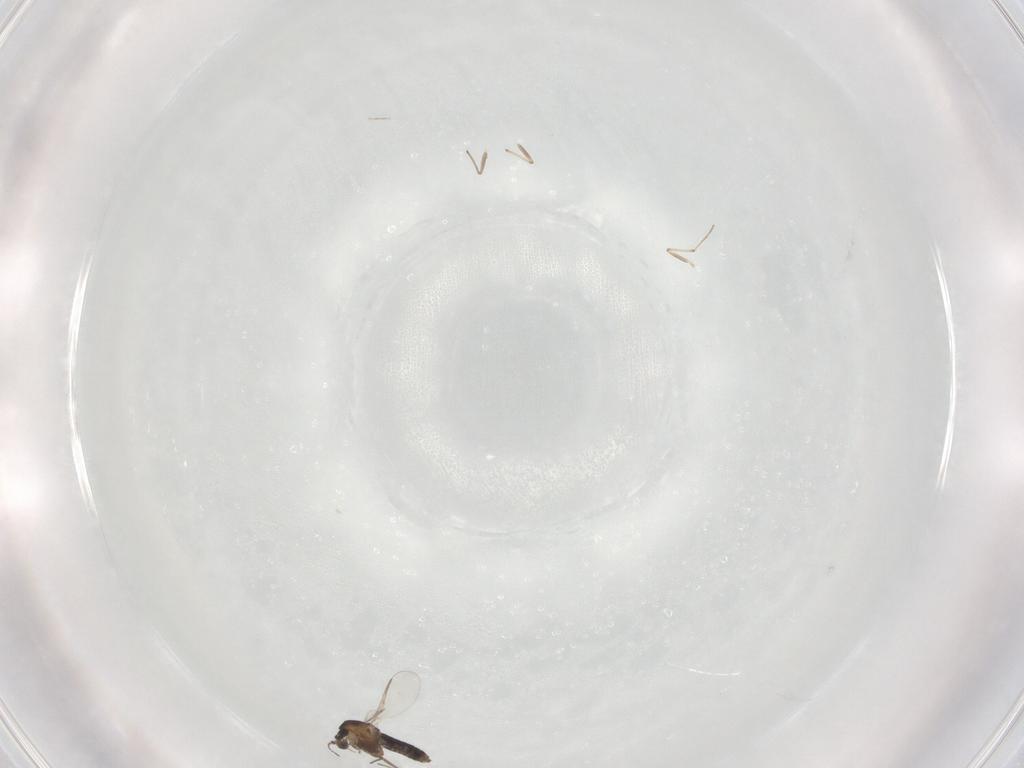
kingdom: Animalia
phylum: Arthropoda
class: Insecta
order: Diptera
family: Chironomidae
